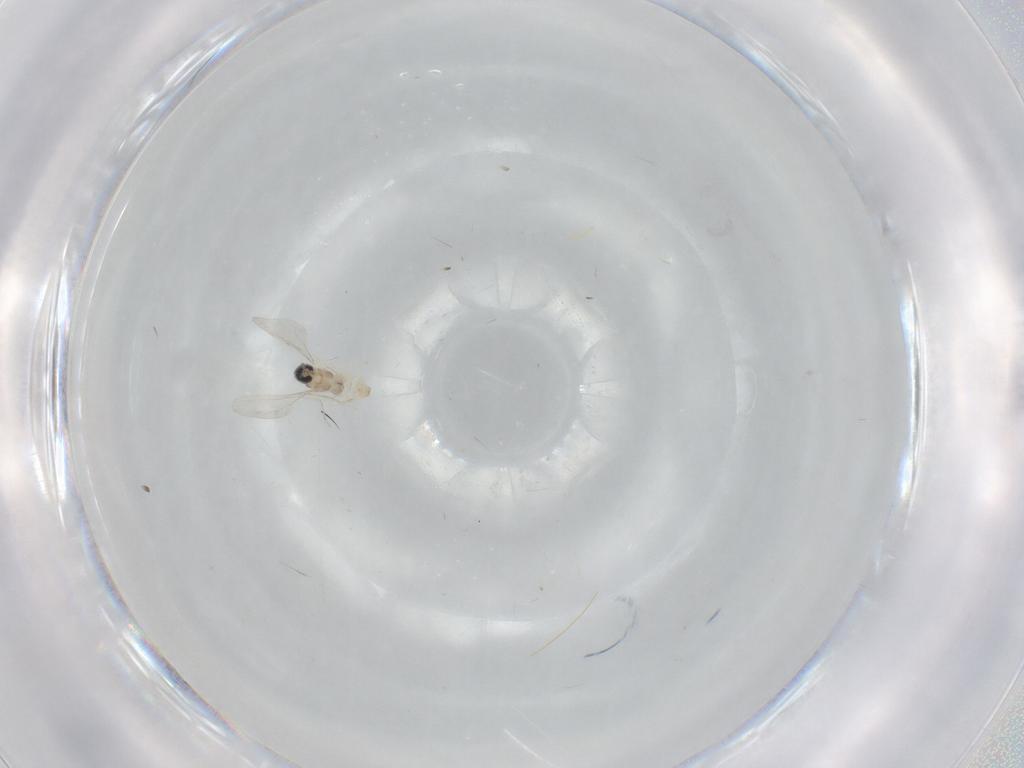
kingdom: Animalia
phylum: Arthropoda
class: Insecta
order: Diptera
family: Cecidomyiidae
